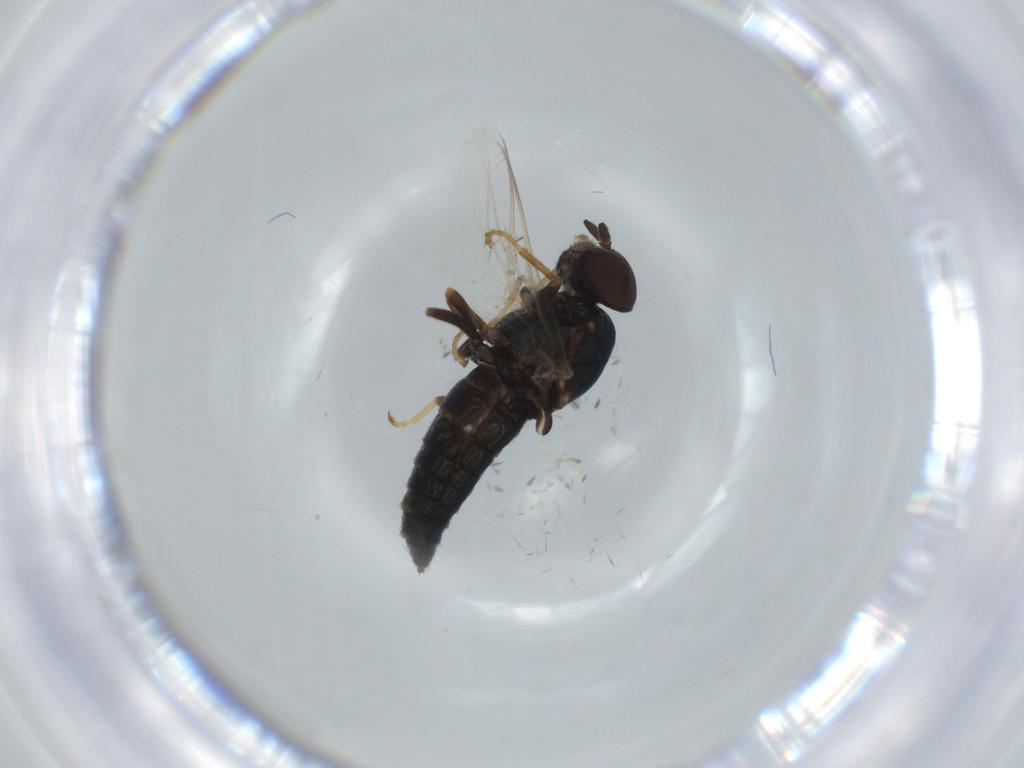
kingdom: Animalia
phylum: Arthropoda
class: Insecta
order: Diptera
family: Scenopinidae
